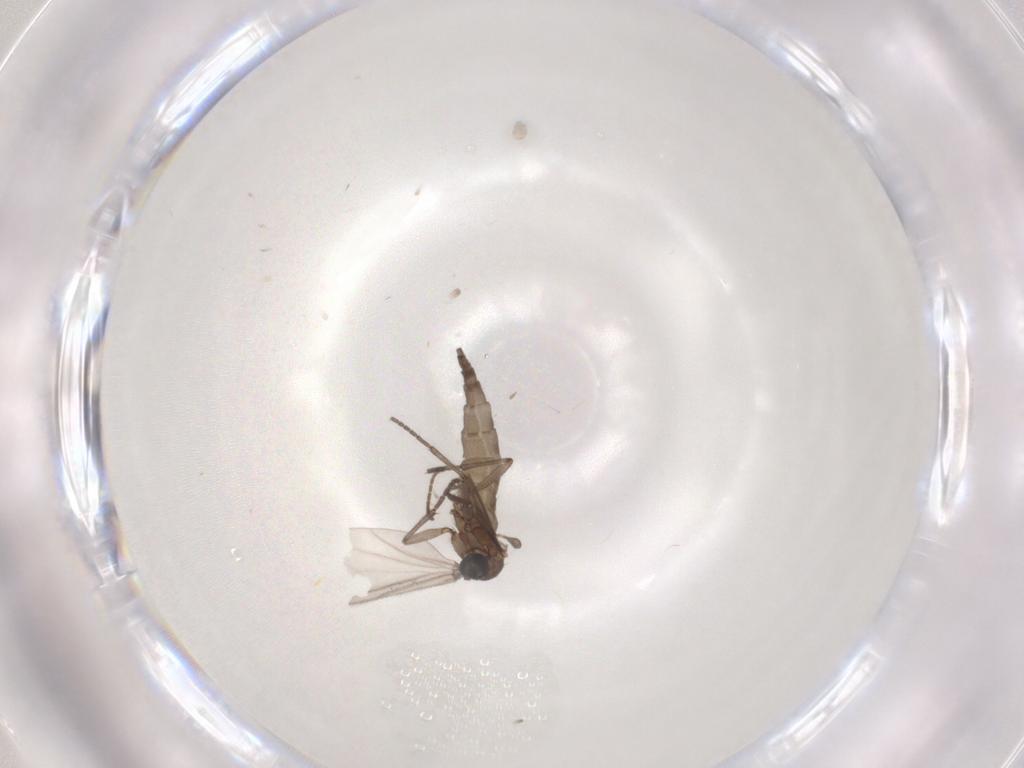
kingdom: Animalia
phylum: Arthropoda
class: Insecta
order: Diptera
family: Sciaridae
